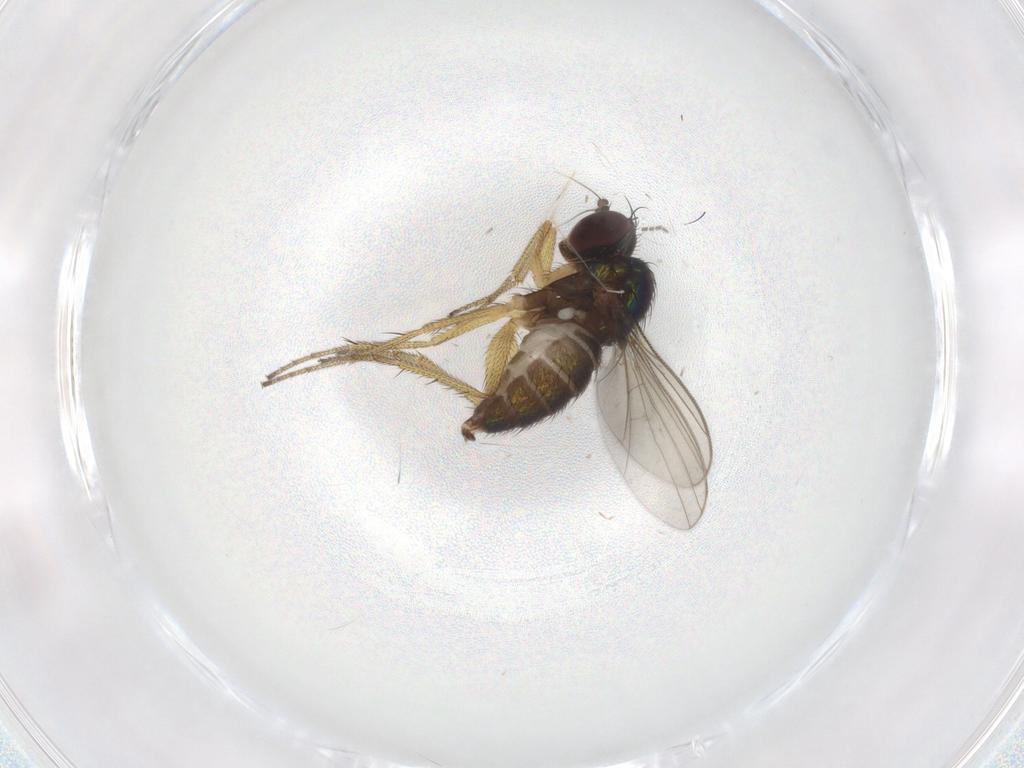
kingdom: Animalia
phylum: Arthropoda
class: Insecta
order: Diptera
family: Sciaridae
